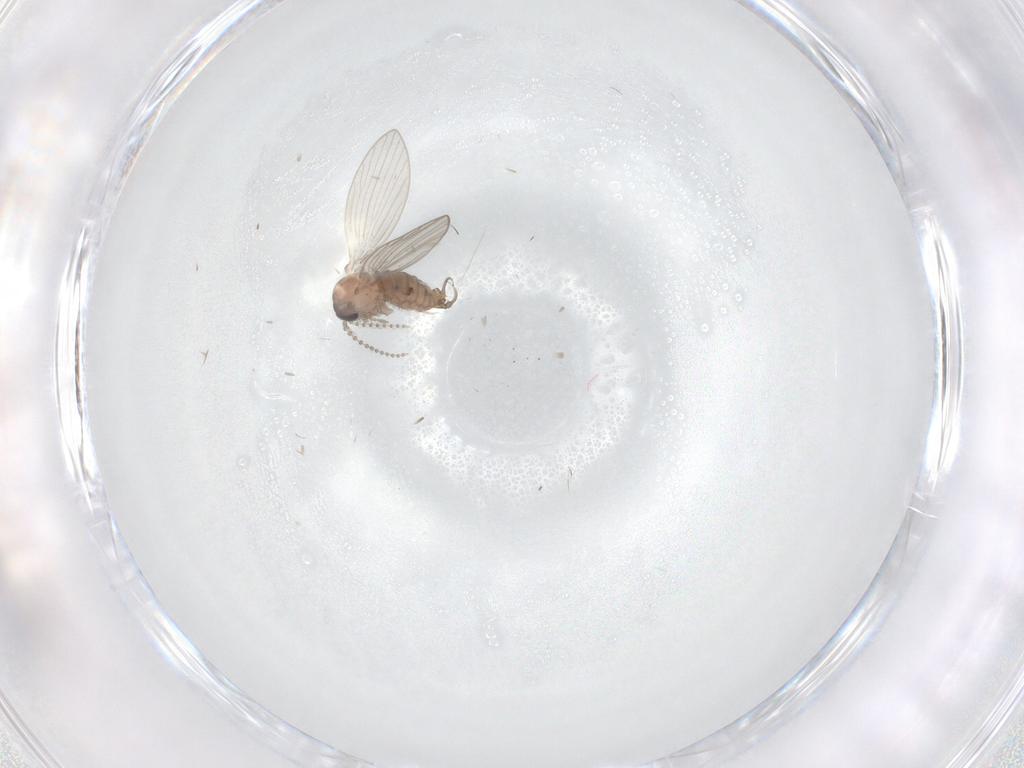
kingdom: Animalia
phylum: Arthropoda
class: Insecta
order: Diptera
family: Psychodidae
